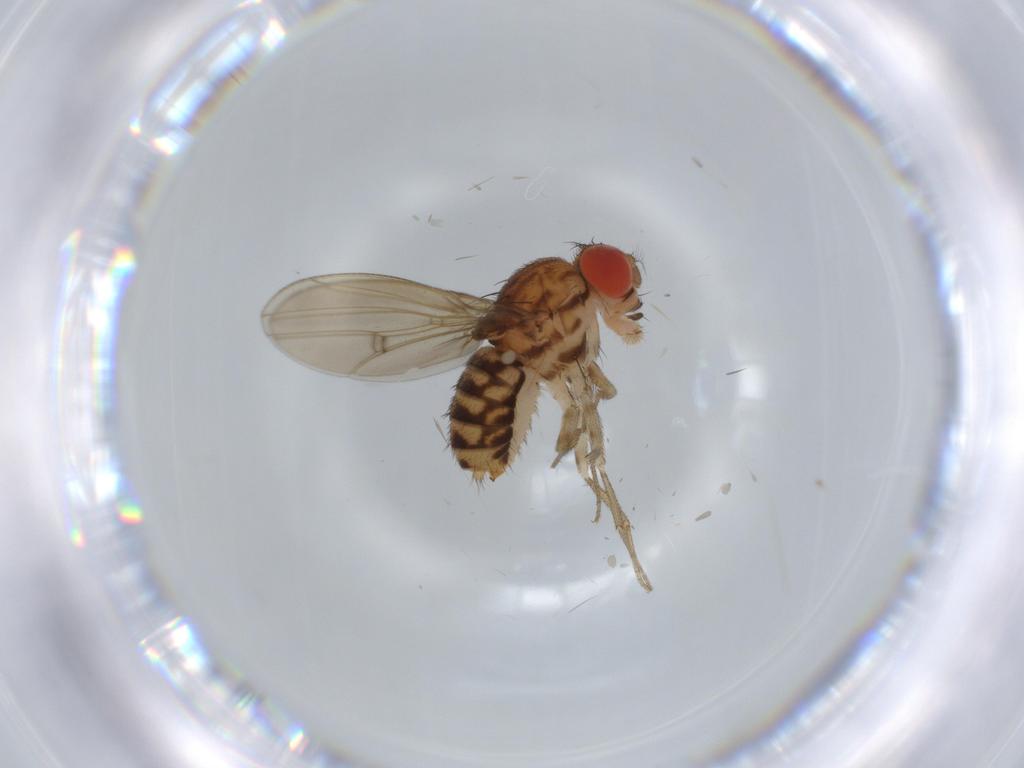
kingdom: Animalia
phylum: Arthropoda
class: Insecta
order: Diptera
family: Drosophilidae
